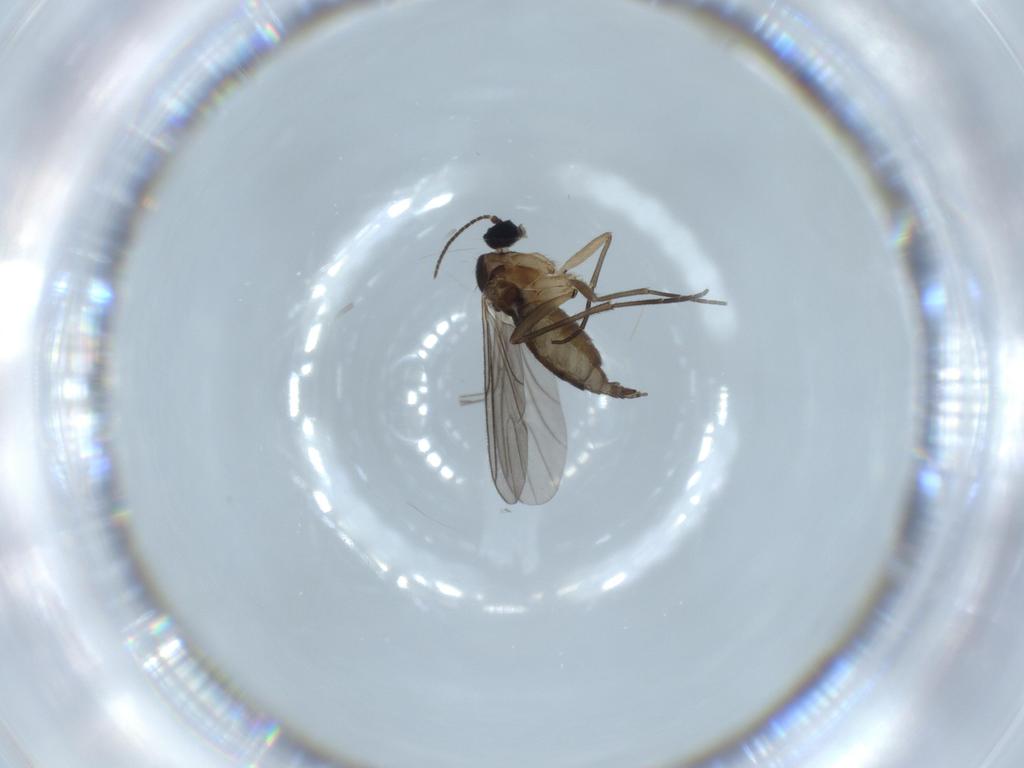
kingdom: Animalia
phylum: Arthropoda
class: Insecta
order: Diptera
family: Sciaridae
